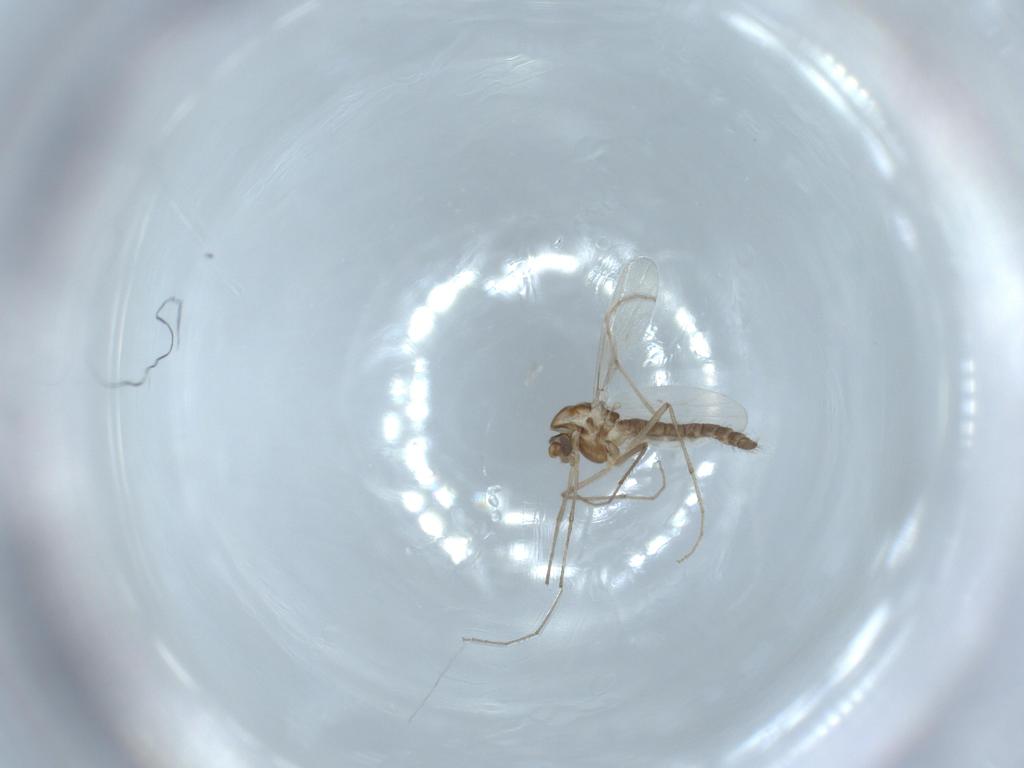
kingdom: Animalia
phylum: Arthropoda
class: Insecta
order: Diptera
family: Chironomidae
